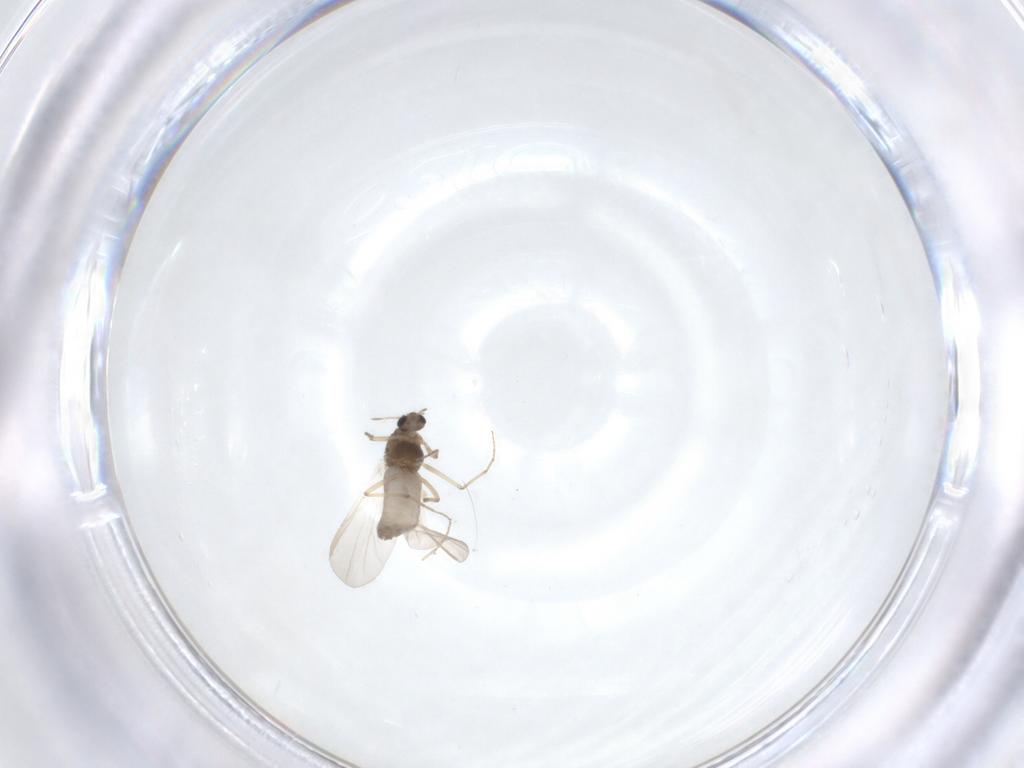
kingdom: Animalia
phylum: Arthropoda
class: Insecta
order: Diptera
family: Chironomidae
